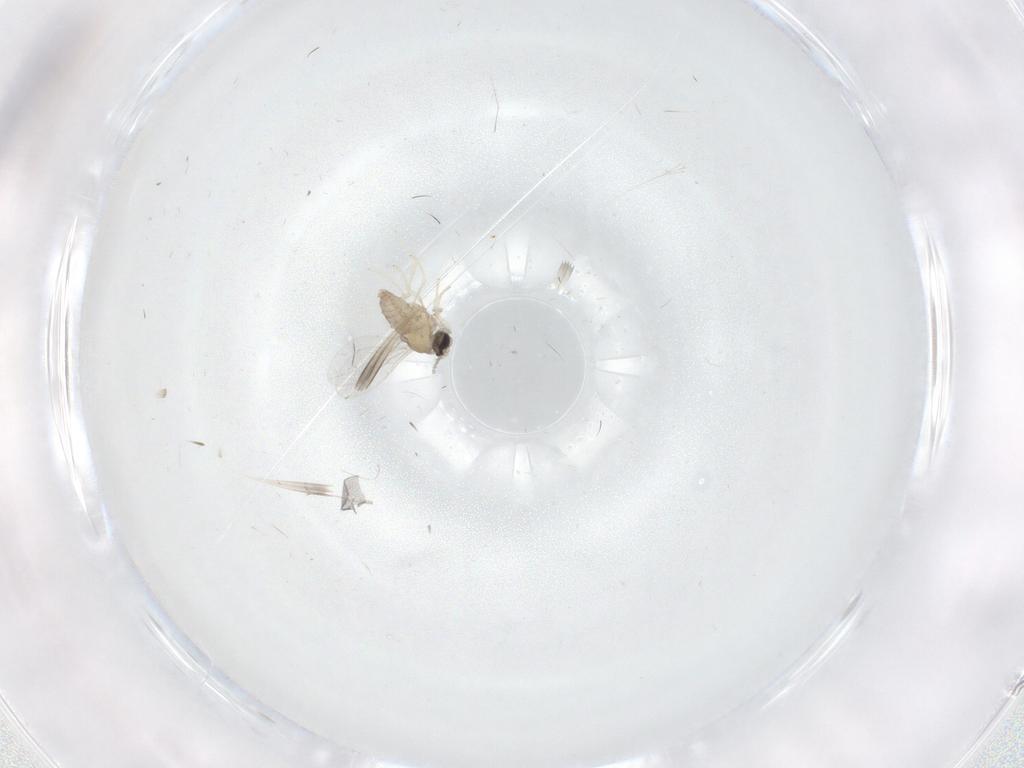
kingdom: Animalia
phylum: Arthropoda
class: Insecta
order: Diptera
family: Cecidomyiidae
